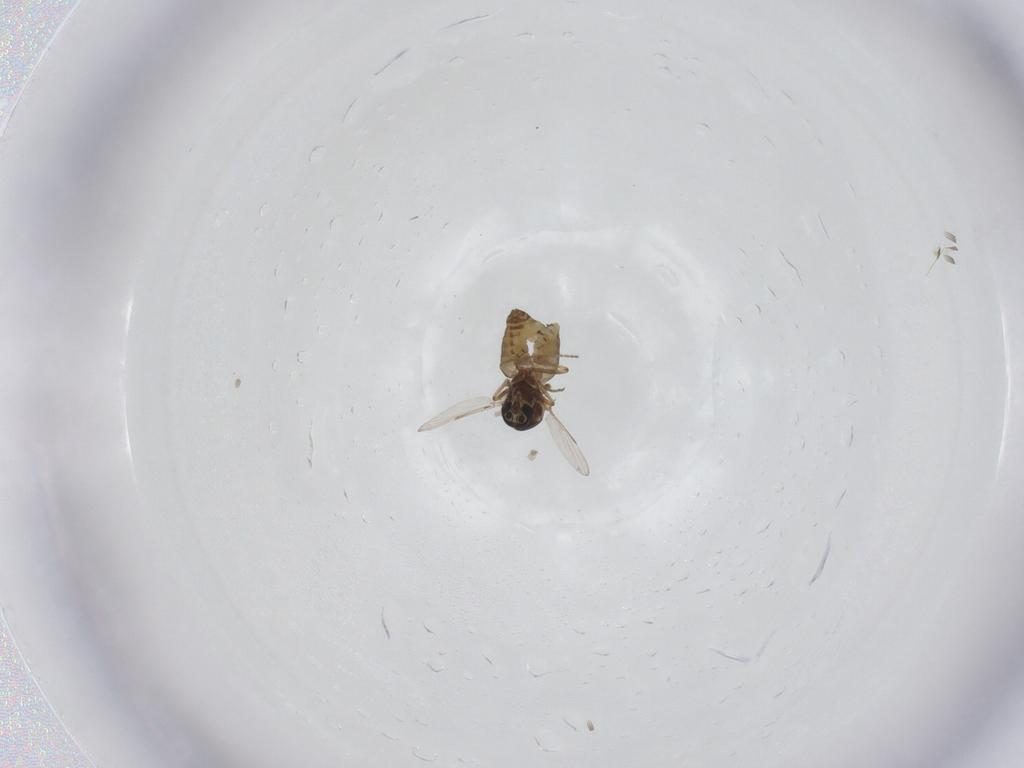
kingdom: Animalia
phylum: Arthropoda
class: Insecta
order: Diptera
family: Ceratopogonidae
